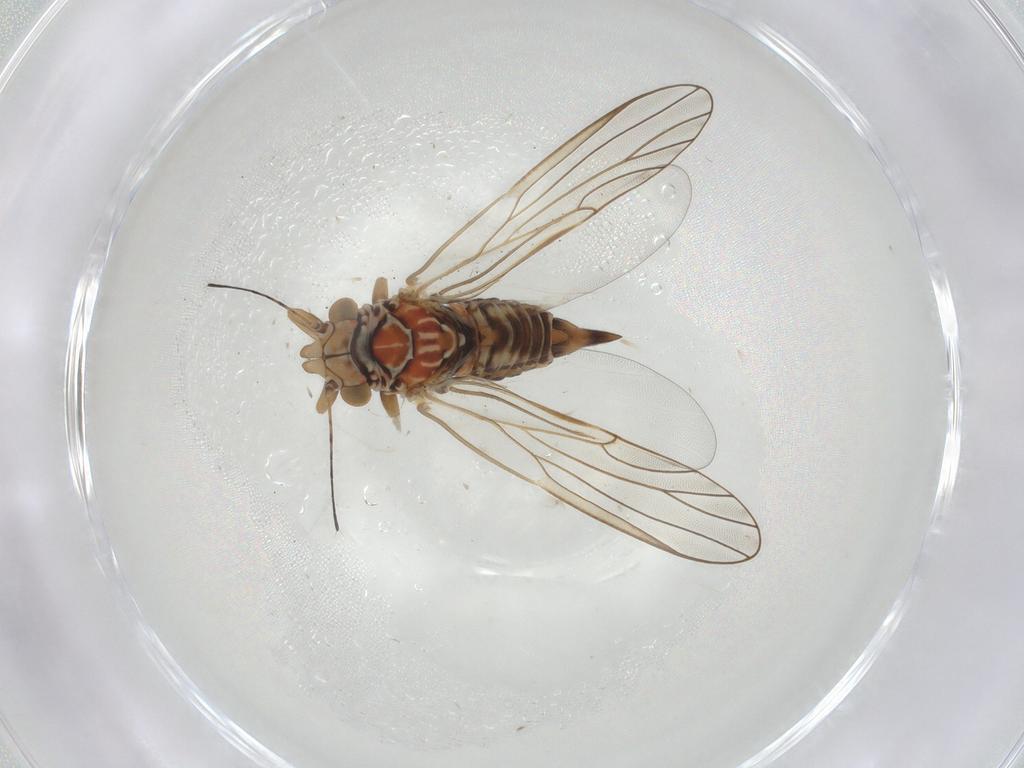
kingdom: Animalia
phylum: Arthropoda
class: Insecta
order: Hemiptera
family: Psyllidae
